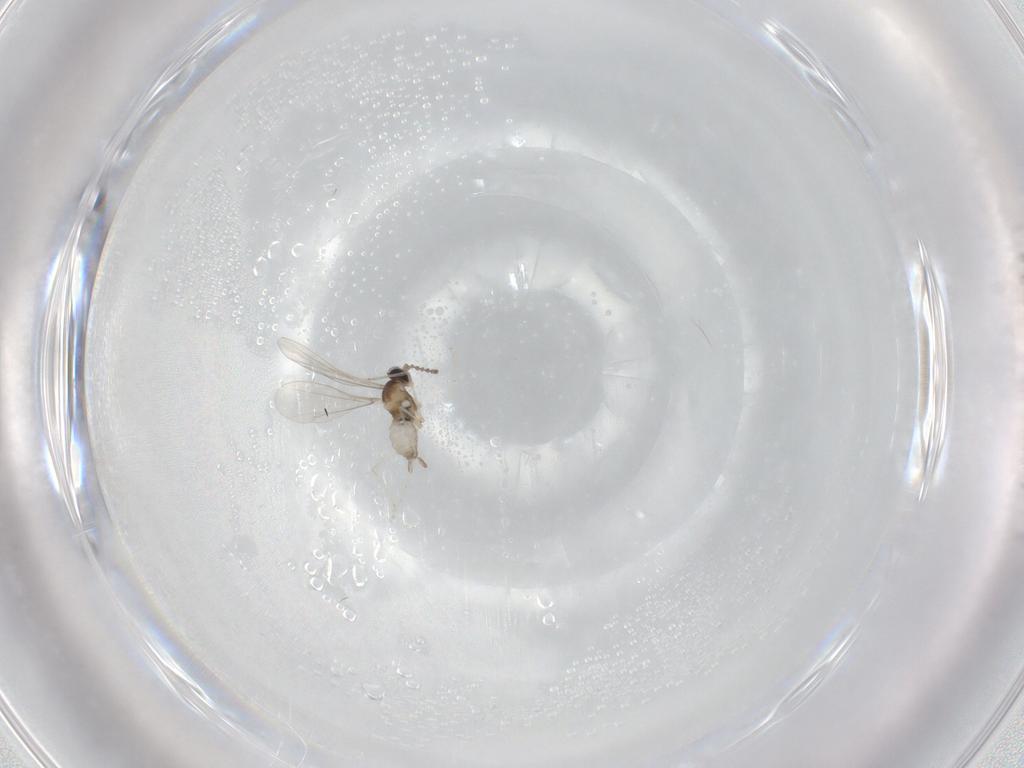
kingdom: Animalia
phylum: Arthropoda
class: Insecta
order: Diptera
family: Cecidomyiidae
